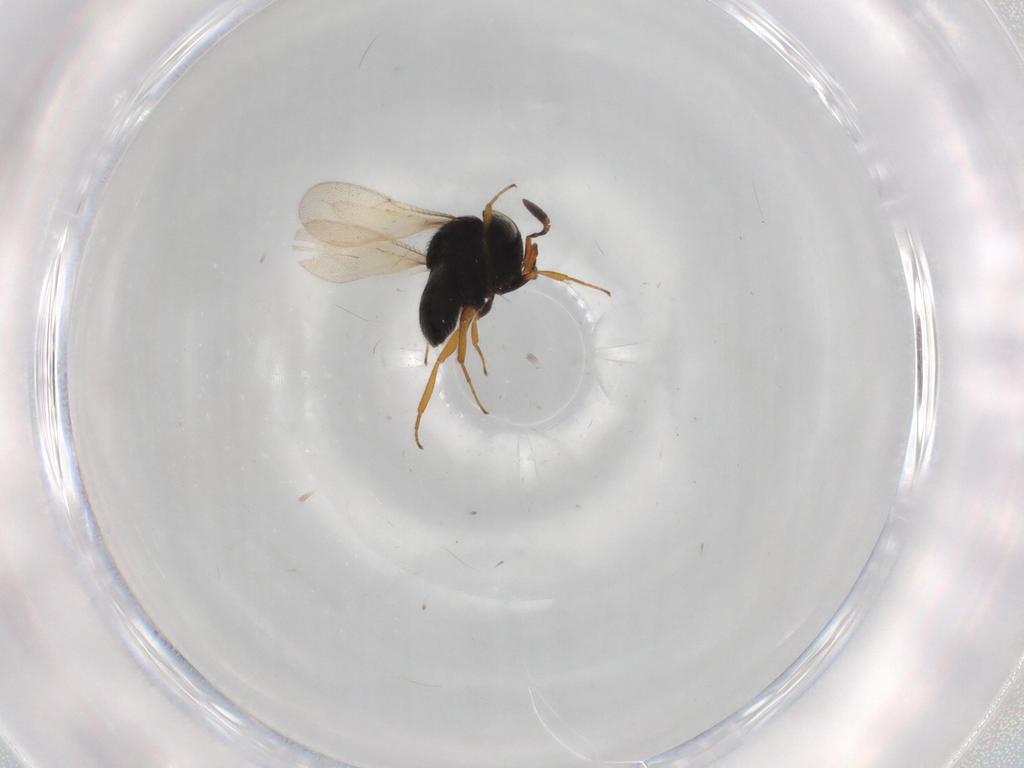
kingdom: Animalia
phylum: Arthropoda
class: Insecta
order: Hymenoptera
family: Scelionidae
